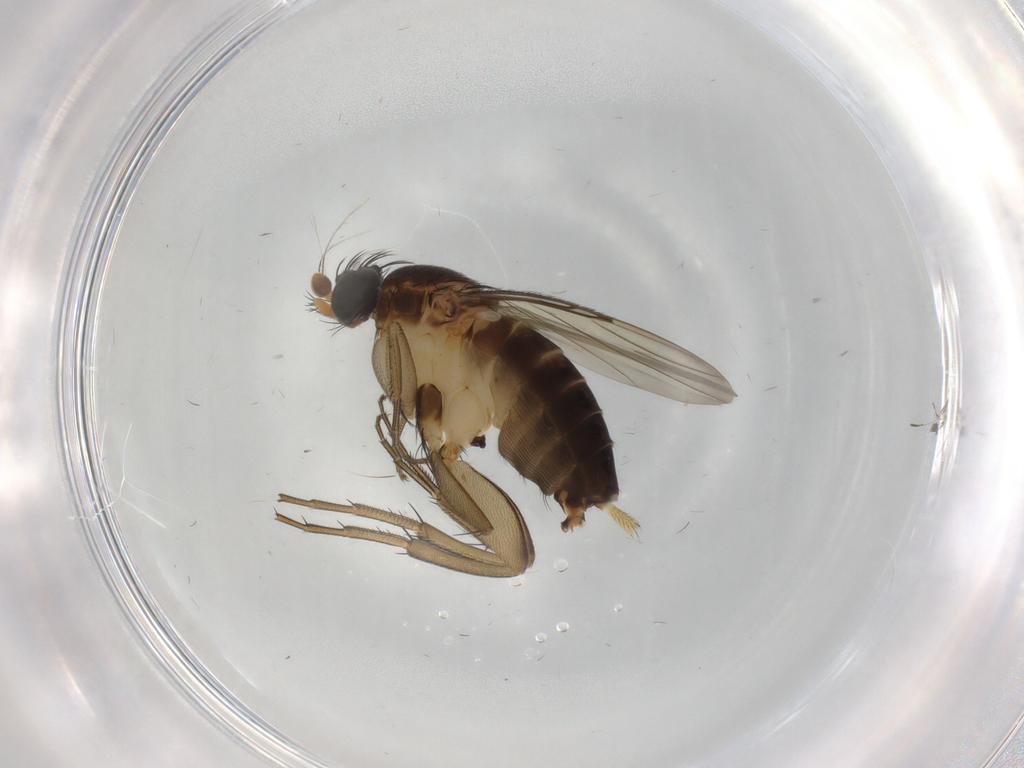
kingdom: Animalia
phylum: Arthropoda
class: Insecta
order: Diptera
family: Phoridae
